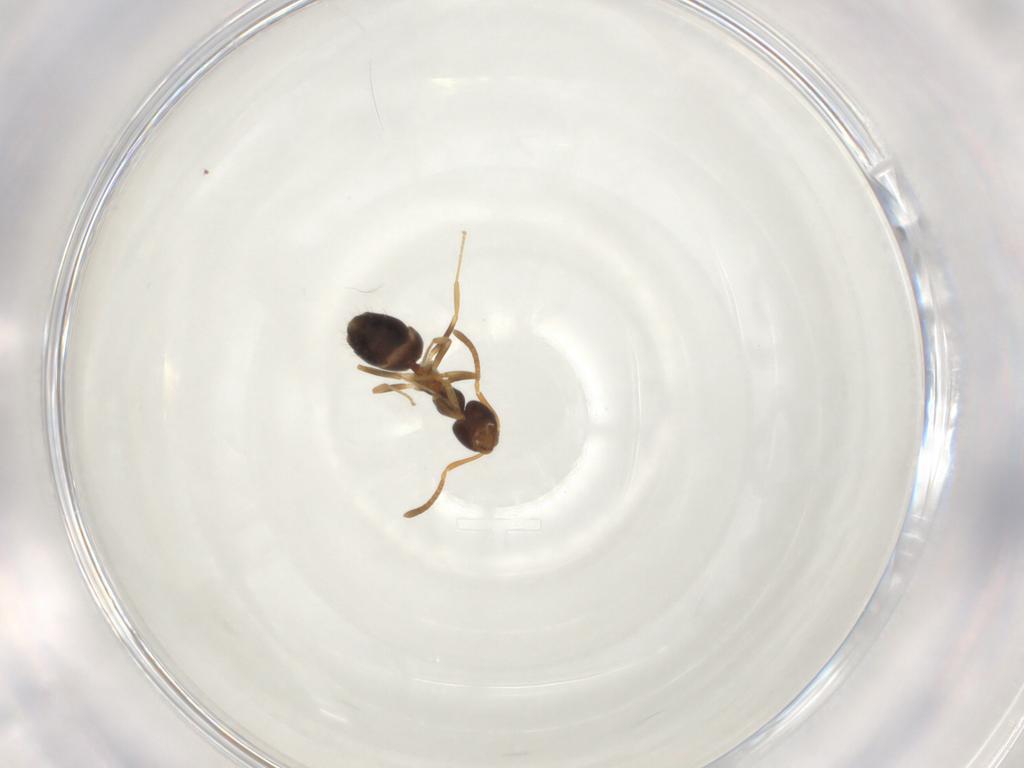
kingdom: Animalia
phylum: Arthropoda
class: Insecta
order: Hymenoptera
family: Formicidae
